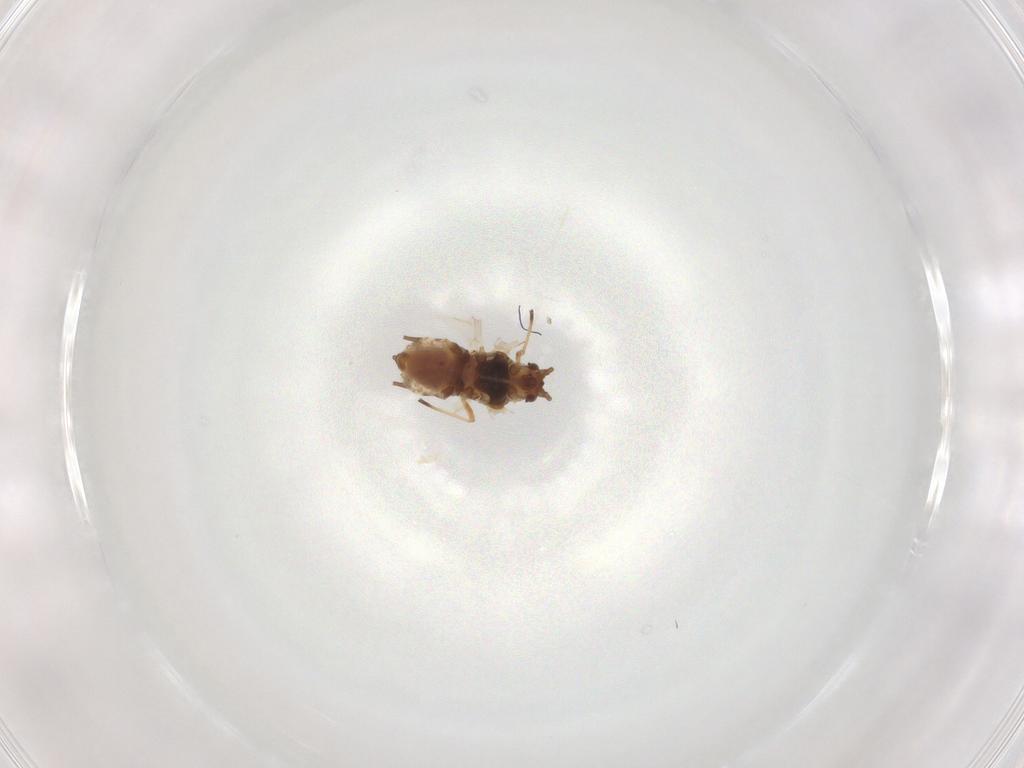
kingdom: Animalia
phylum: Arthropoda
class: Insecta
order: Hemiptera
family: Aphididae
